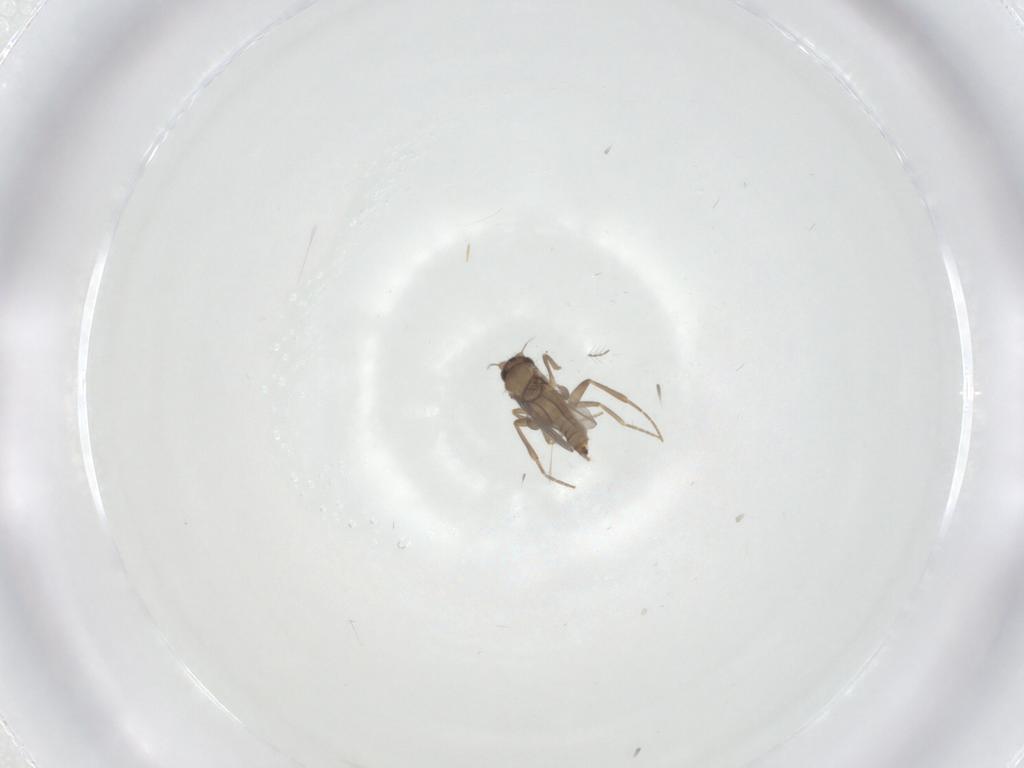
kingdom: Animalia
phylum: Arthropoda
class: Insecta
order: Diptera
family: Chironomidae
